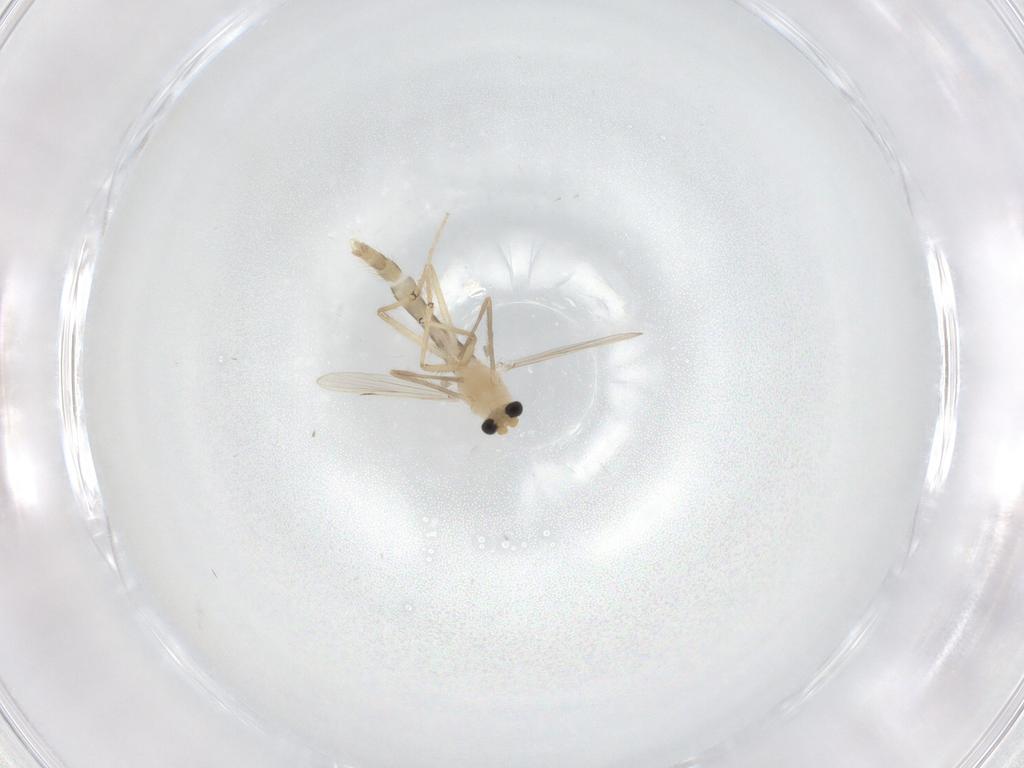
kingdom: Animalia
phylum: Arthropoda
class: Insecta
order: Diptera
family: Chironomidae
